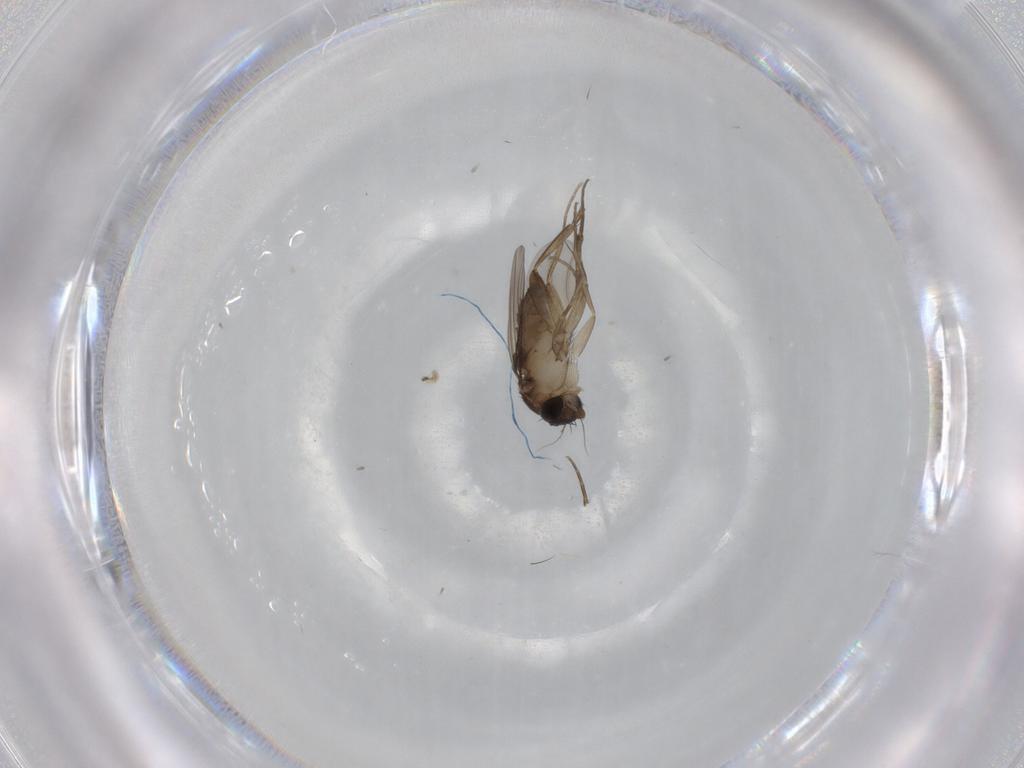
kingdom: Animalia
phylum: Arthropoda
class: Insecta
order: Diptera
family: Phoridae
